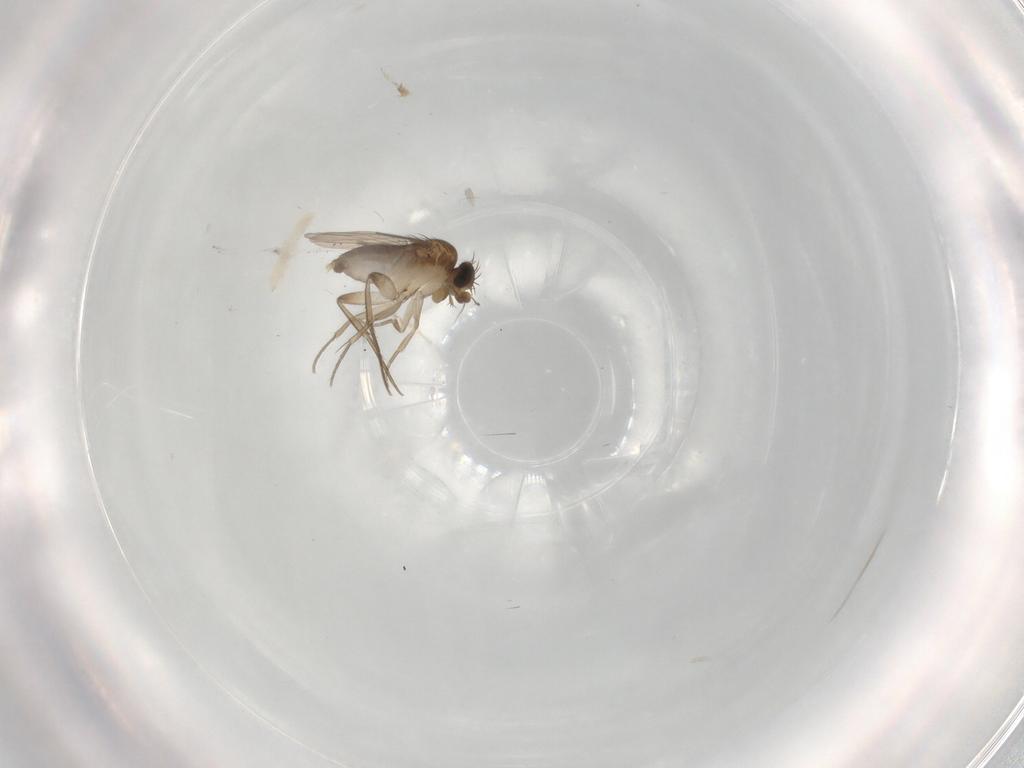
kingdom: Animalia
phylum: Arthropoda
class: Insecta
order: Diptera
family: Phoridae
